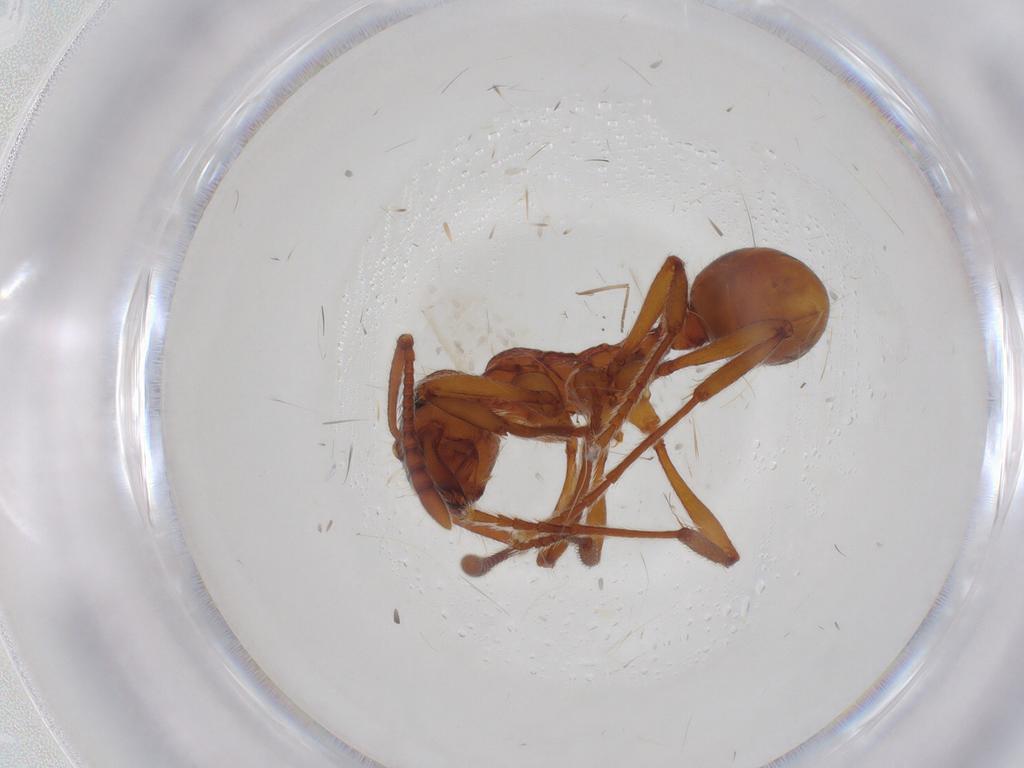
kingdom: Animalia
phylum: Arthropoda
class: Insecta
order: Hymenoptera
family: Formicidae
